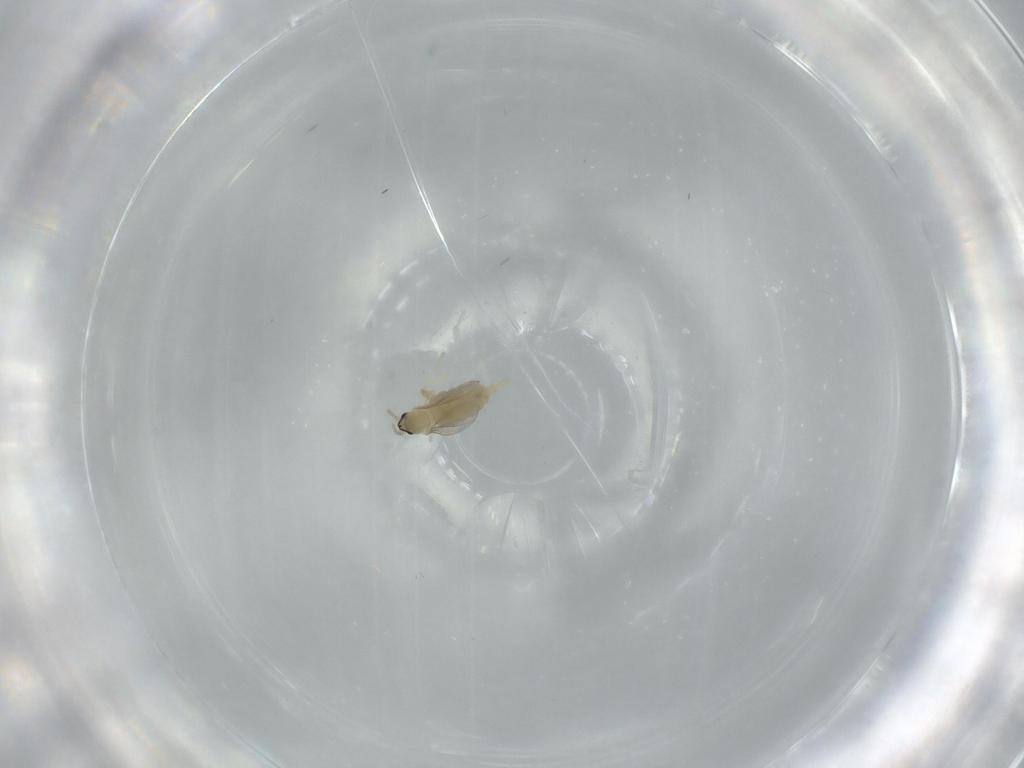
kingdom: Animalia
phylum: Arthropoda
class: Insecta
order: Diptera
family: Cecidomyiidae
